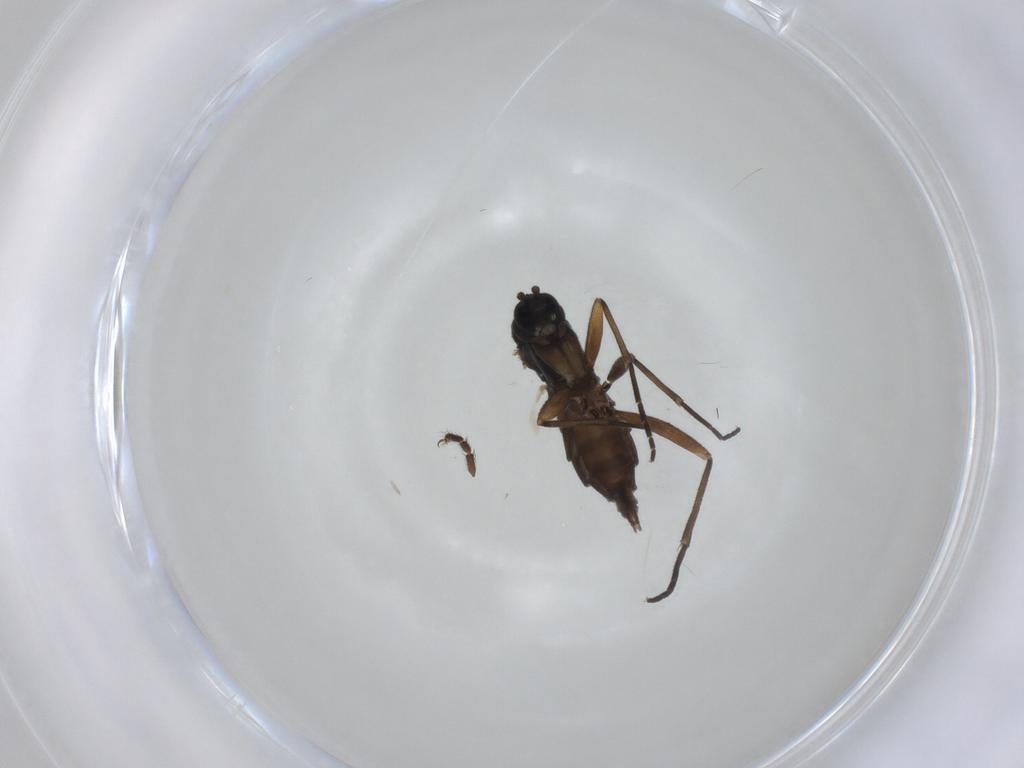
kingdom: Animalia
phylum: Arthropoda
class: Insecta
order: Diptera
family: Sciaridae
